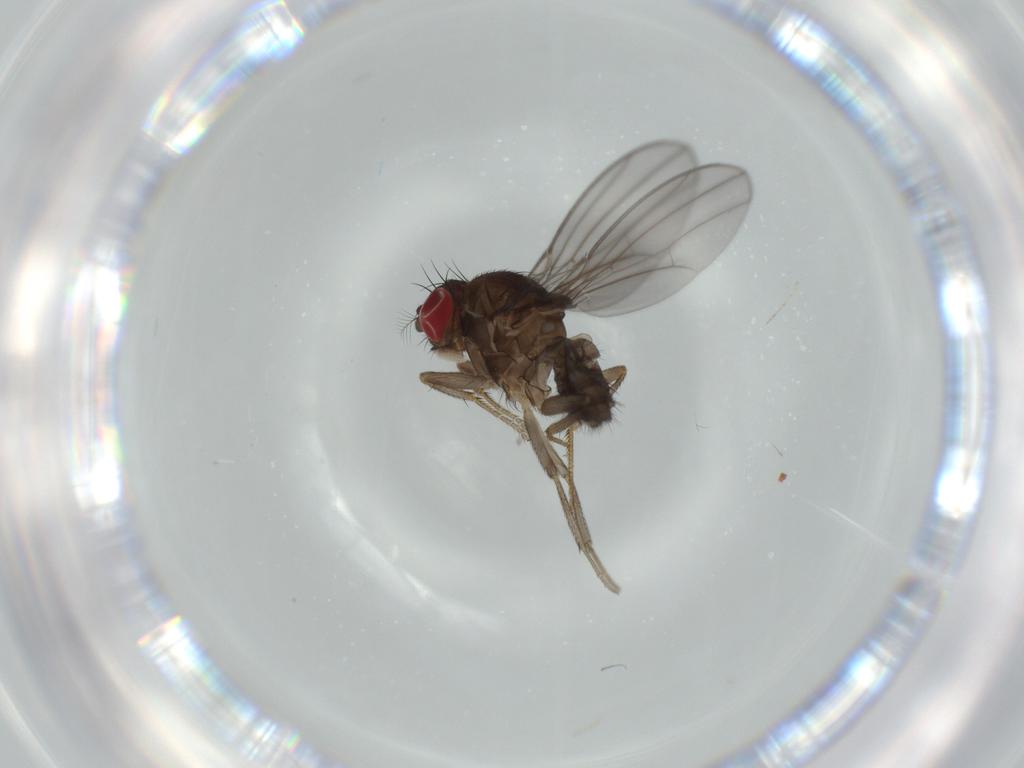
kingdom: Animalia
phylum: Arthropoda
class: Insecta
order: Diptera
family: Drosophilidae
